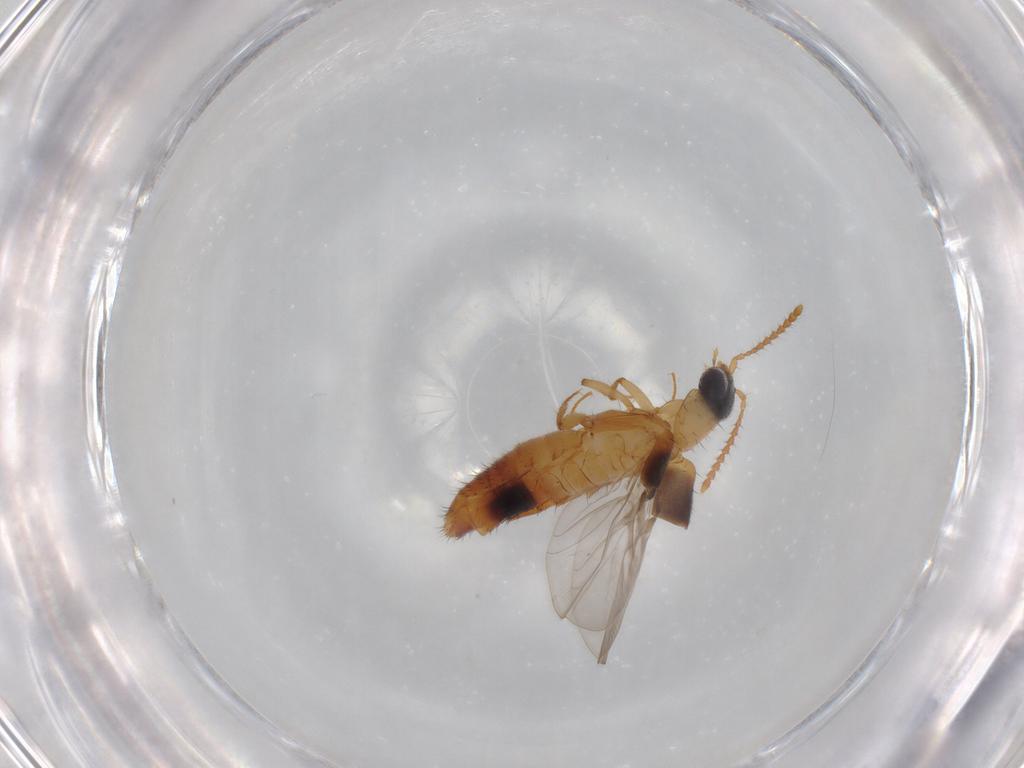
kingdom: Animalia
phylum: Arthropoda
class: Insecta
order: Coleoptera
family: Staphylinidae
